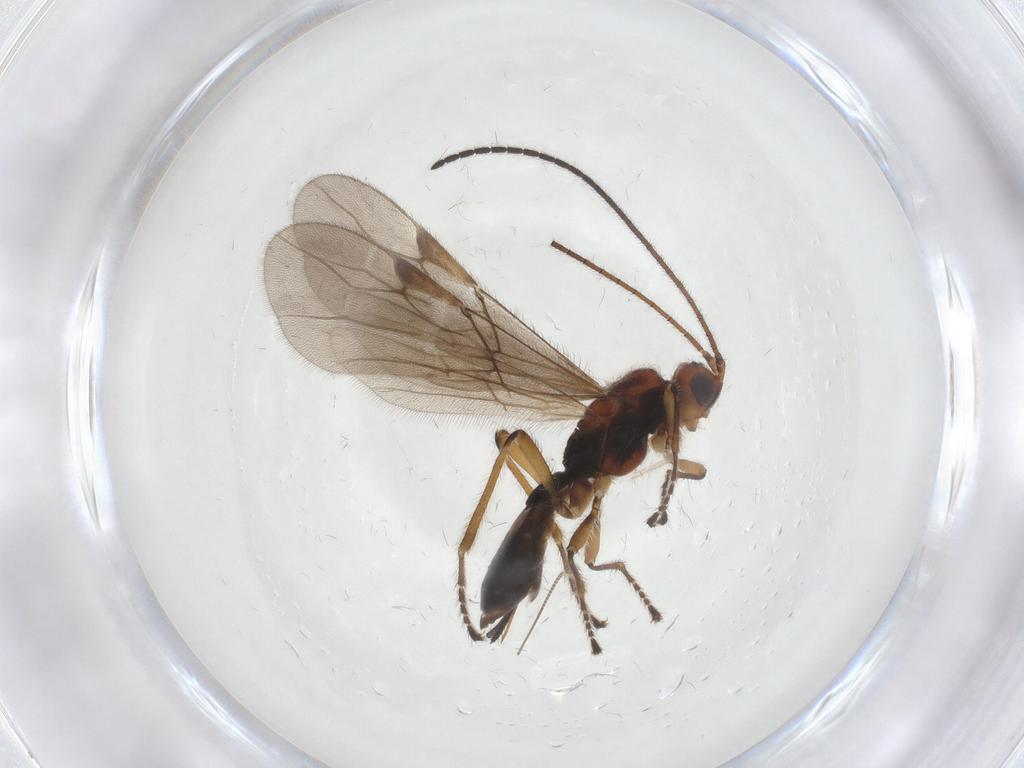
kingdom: Animalia
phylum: Arthropoda
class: Insecta
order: Hymenoptera
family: Braconidae
